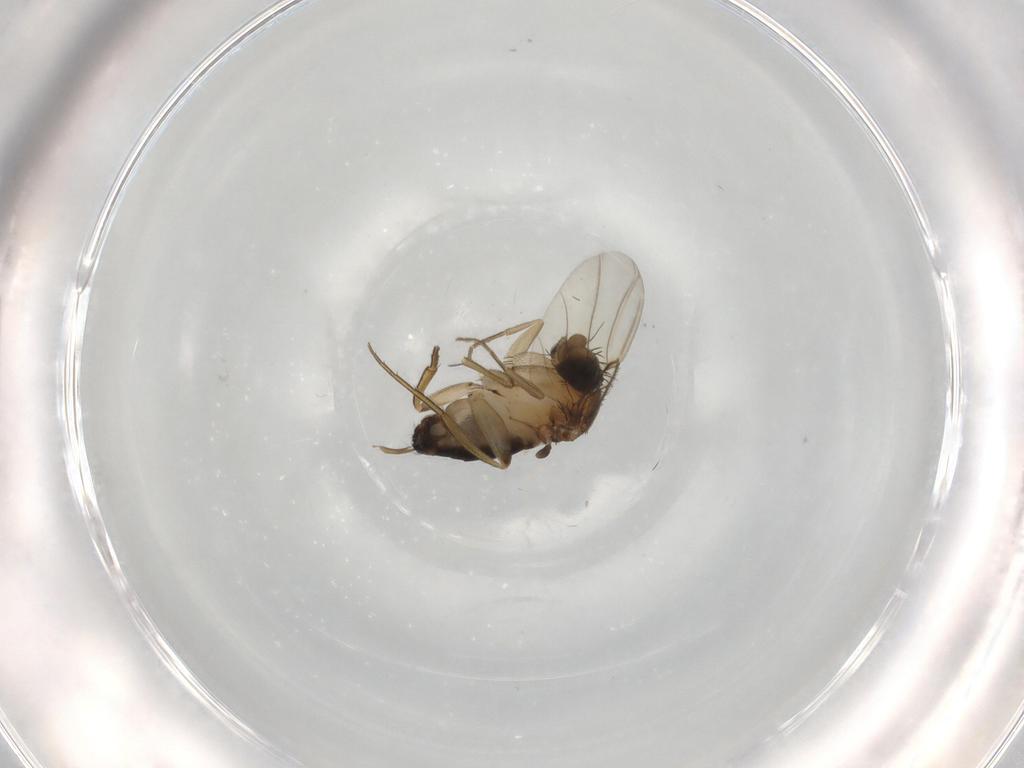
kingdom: Animalia
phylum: Arthropoda
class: Insecta
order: Diptera
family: Phoridae
